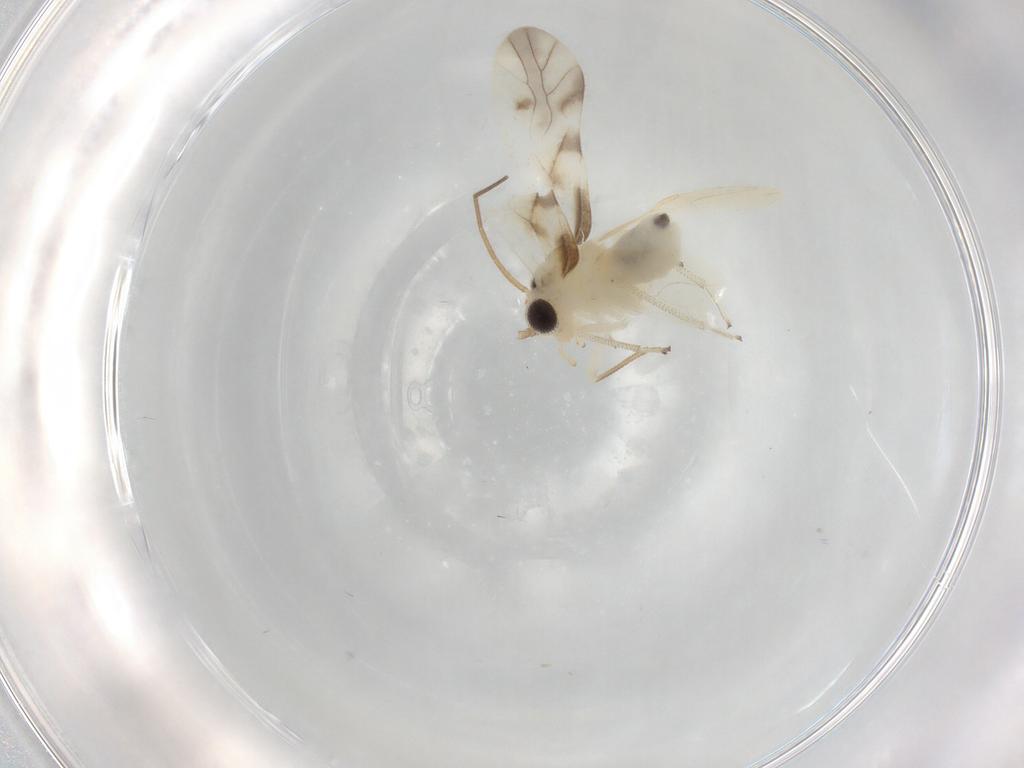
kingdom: Animalia
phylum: Arthropoda
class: Insecta
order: Psocodea
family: Caeciliusidae
